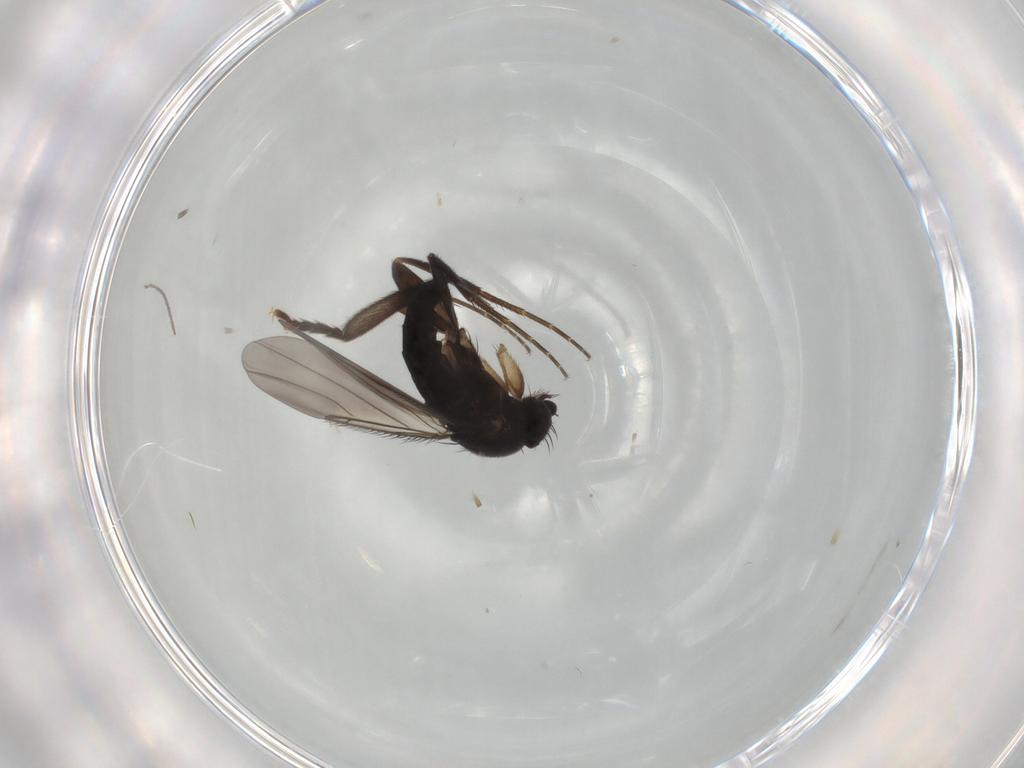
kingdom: Animalia
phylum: Arthropoda
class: Insecta
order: Diptera
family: Phoridae
